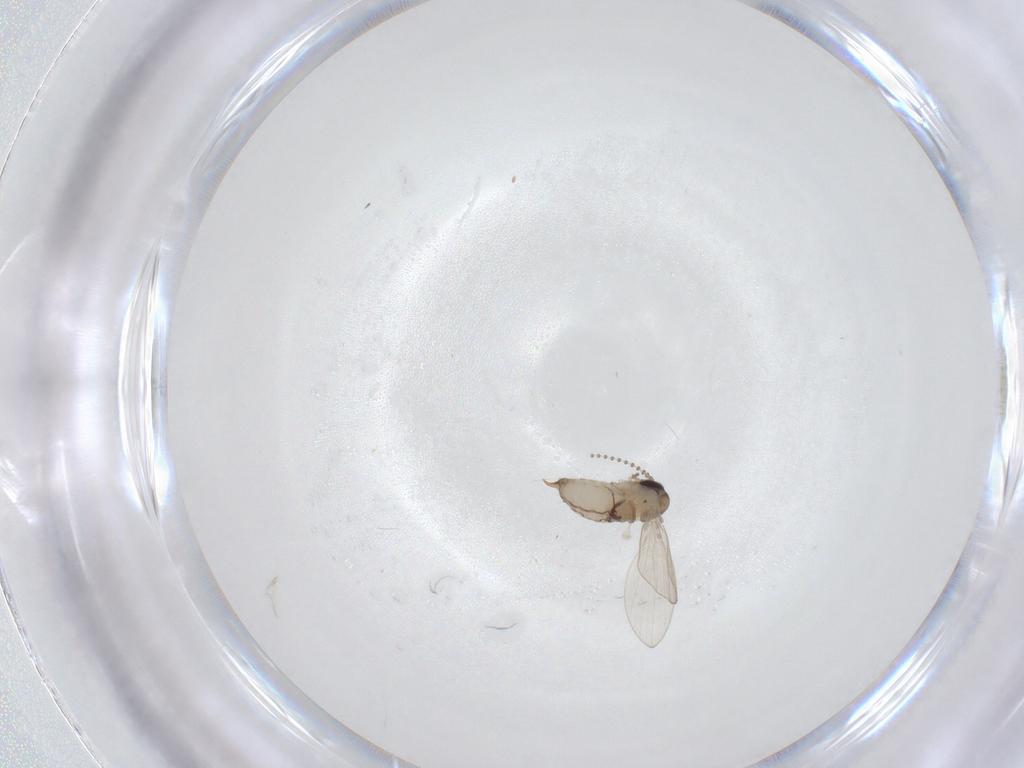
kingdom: Animalia
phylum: Arthropoda
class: Insecta
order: Diptera
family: Psychodidae
